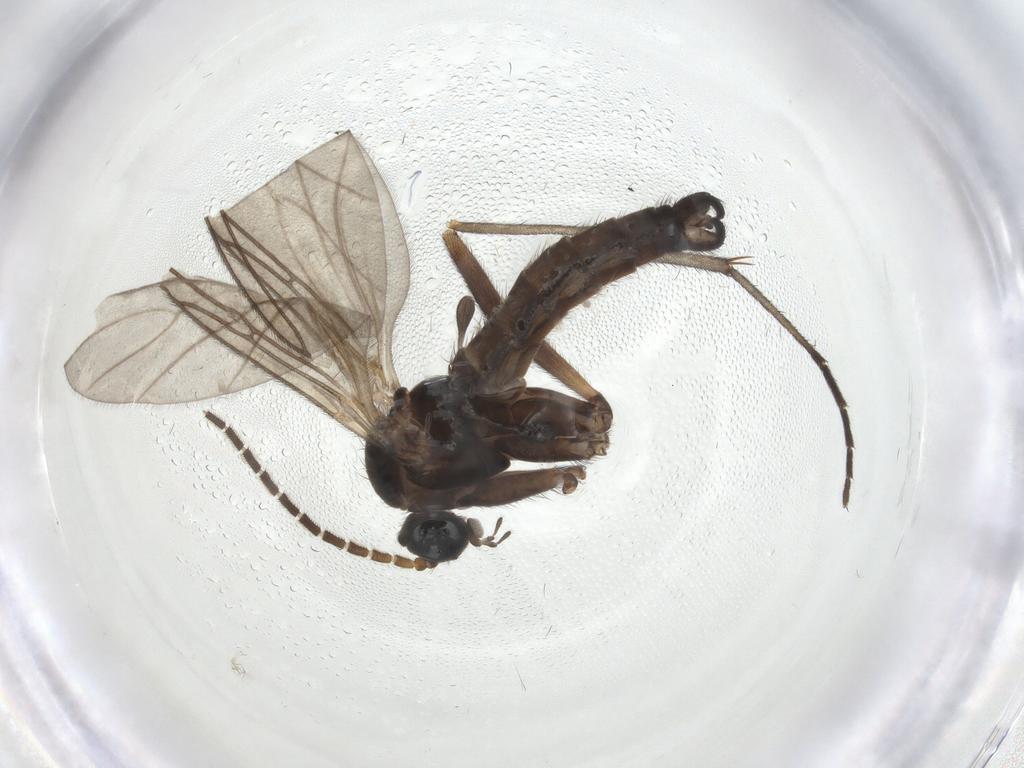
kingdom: Animalia
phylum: Arthropoda
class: Insecta
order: Diptera
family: Sciaridae
